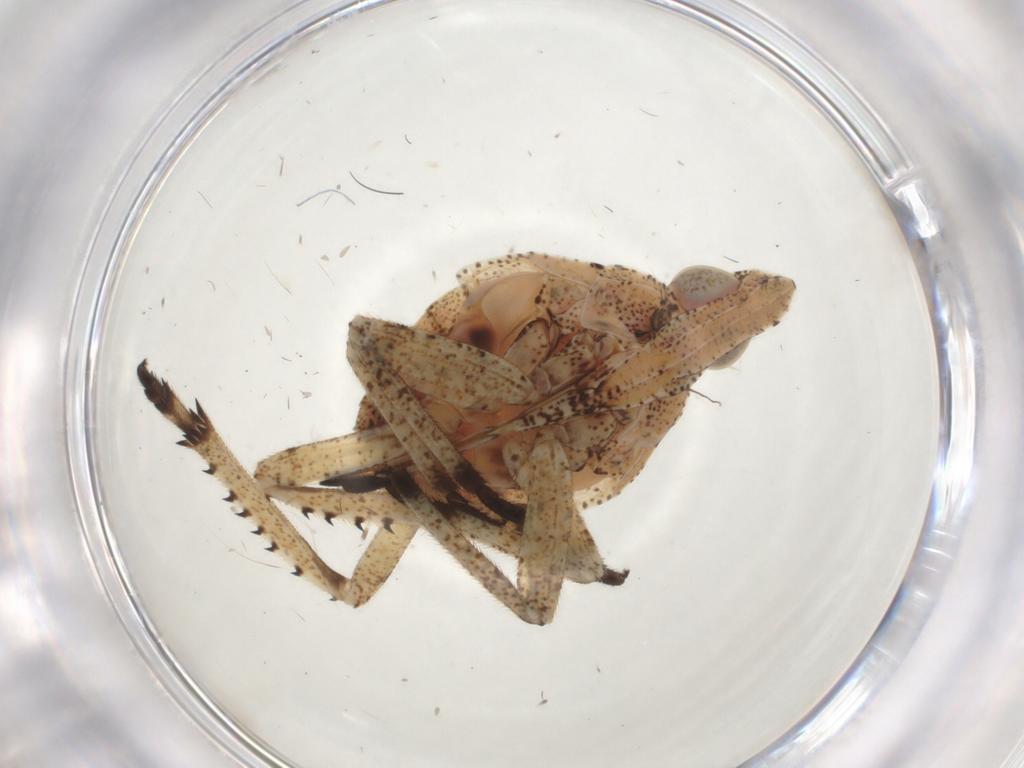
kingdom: Animalia
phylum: Arthropoda
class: Insecta
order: Hemiptera
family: Dictyopharidae
